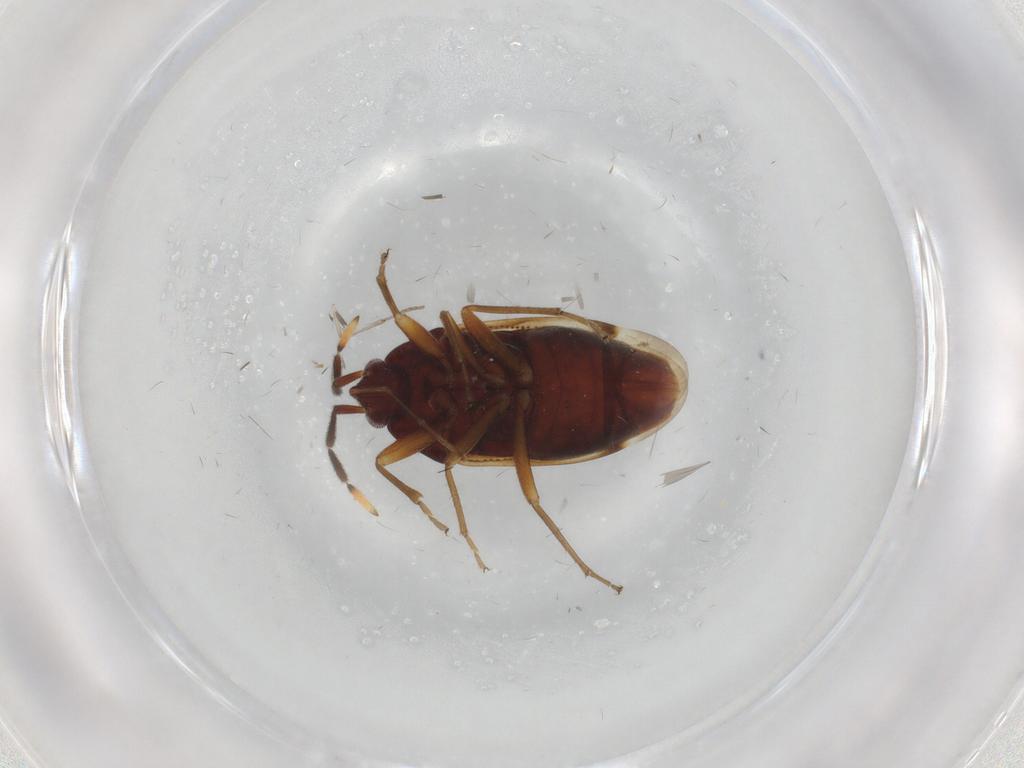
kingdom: Animalia
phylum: Arthropoda
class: Insecta
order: Hemiptera
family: Rhyparochromidae
